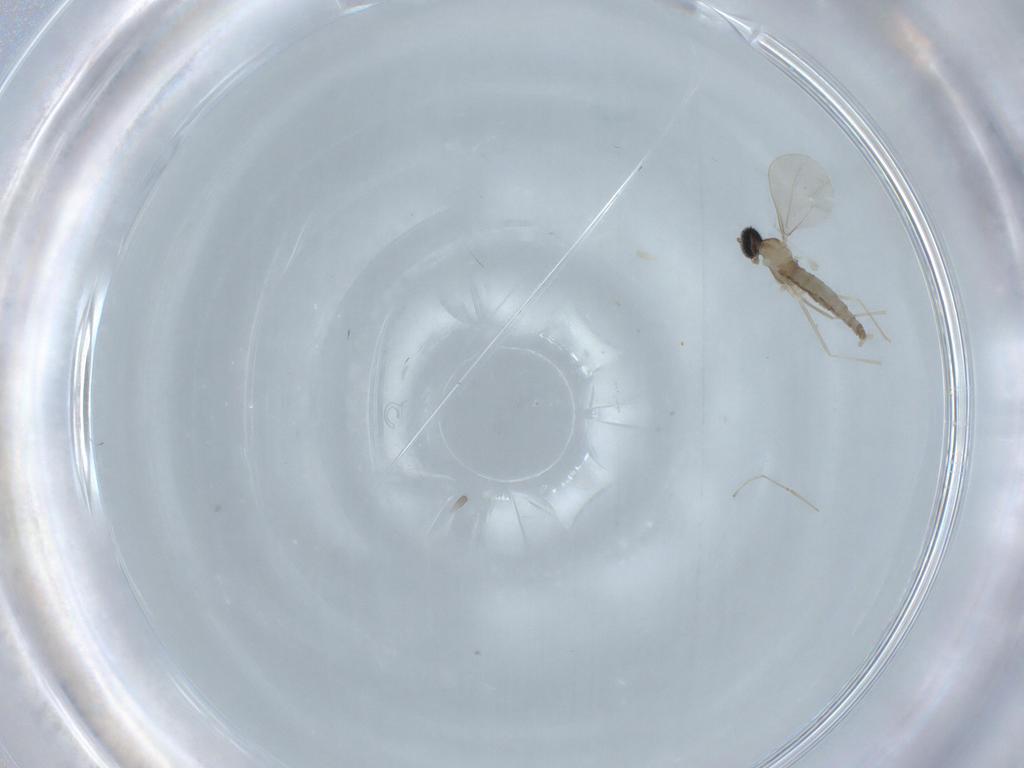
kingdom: Animalia
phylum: Arthropoda
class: Insecta
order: Diptera
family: Cecidomyiidae
